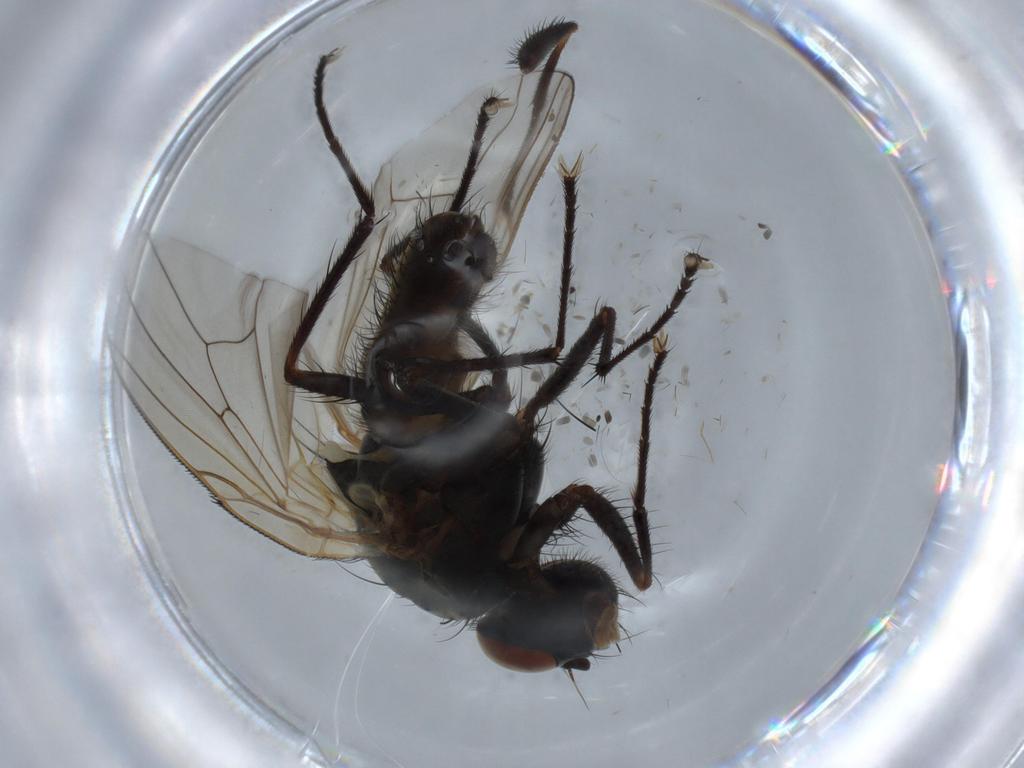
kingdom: Animalia
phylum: Arthropoda
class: Insecta
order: Diptera
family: Anthomyiidae
